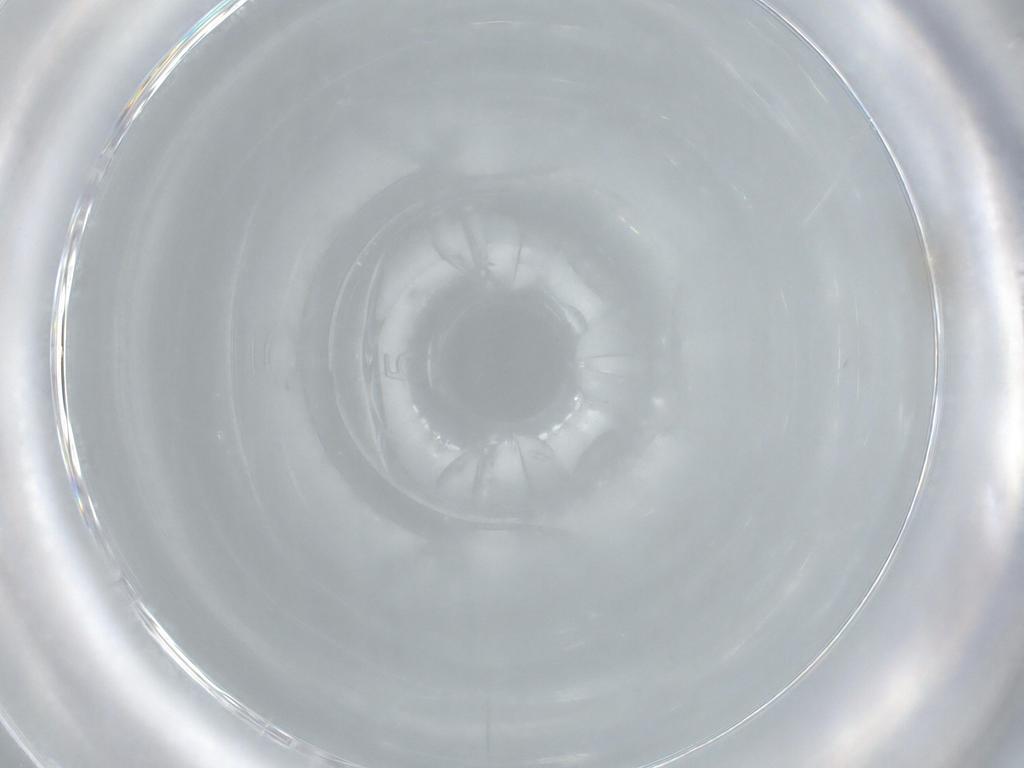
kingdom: Animalia
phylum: Arthropoda
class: Insecta
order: Psocodea
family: Lepidopsocidae
